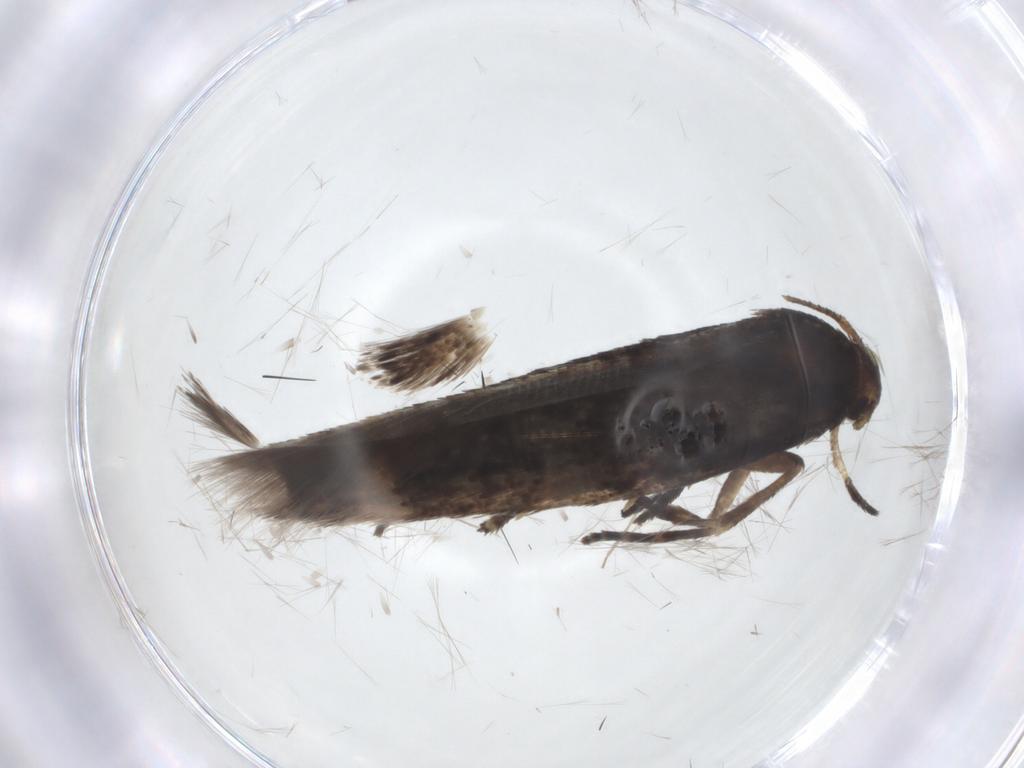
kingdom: Animalia
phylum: Arthropoda
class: Insecta
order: Lepidoptera
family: Momphidae
